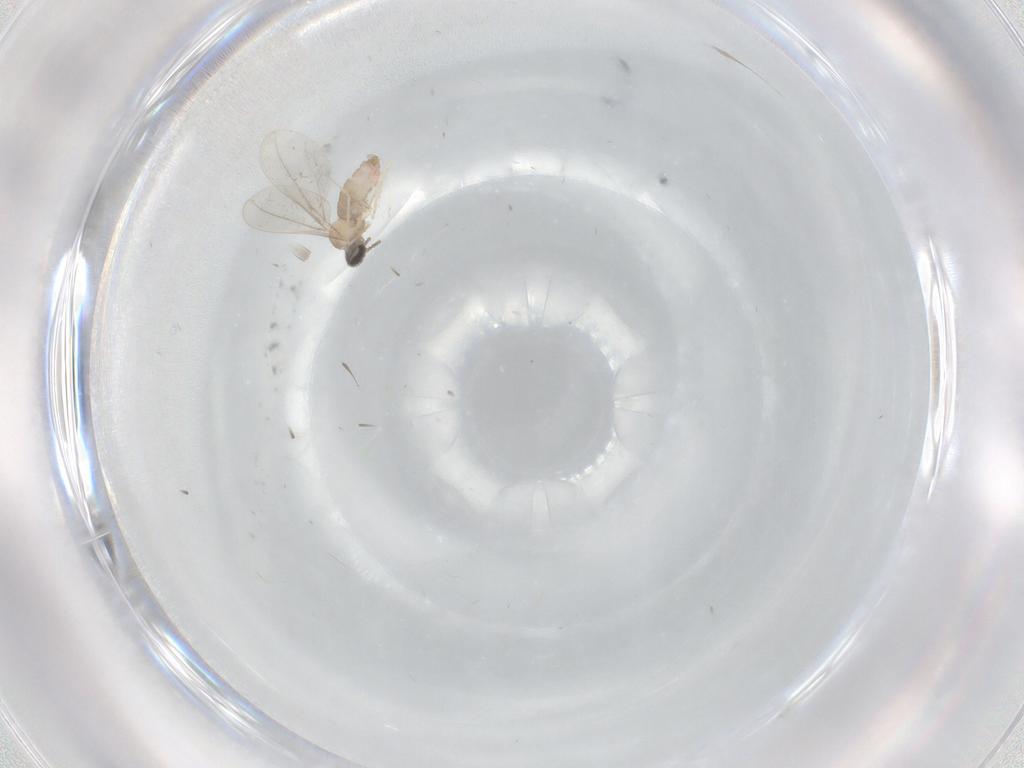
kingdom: Animalia
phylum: Arthropoda
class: Insecta
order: Diptera
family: Cecidomyiidae
